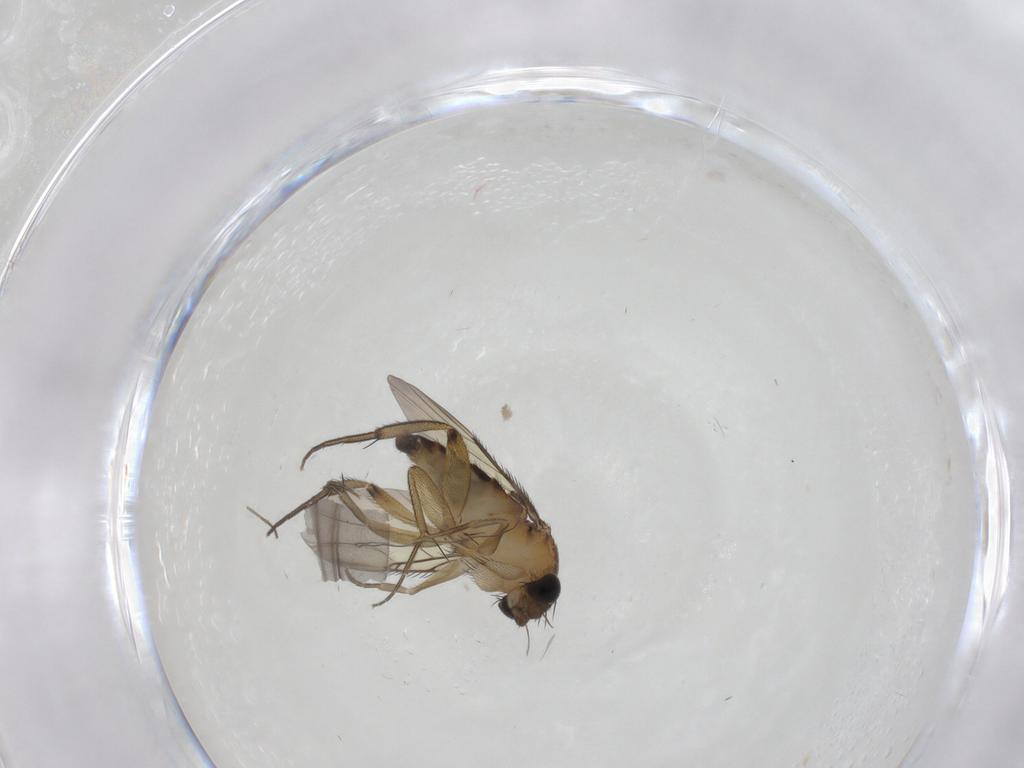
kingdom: Animalia
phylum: Arthropoda
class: Insecta
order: Diptera
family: Phoridae
